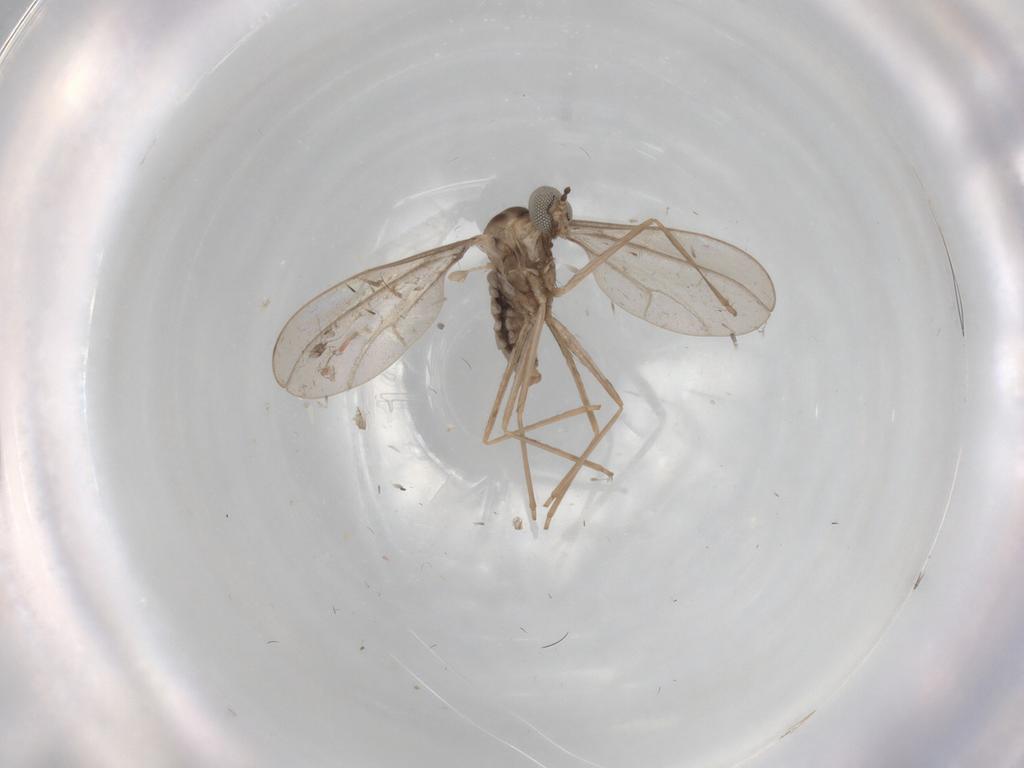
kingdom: Animalia
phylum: Arthropoda
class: Insecta
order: Diptera
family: Cecidomyiidae
